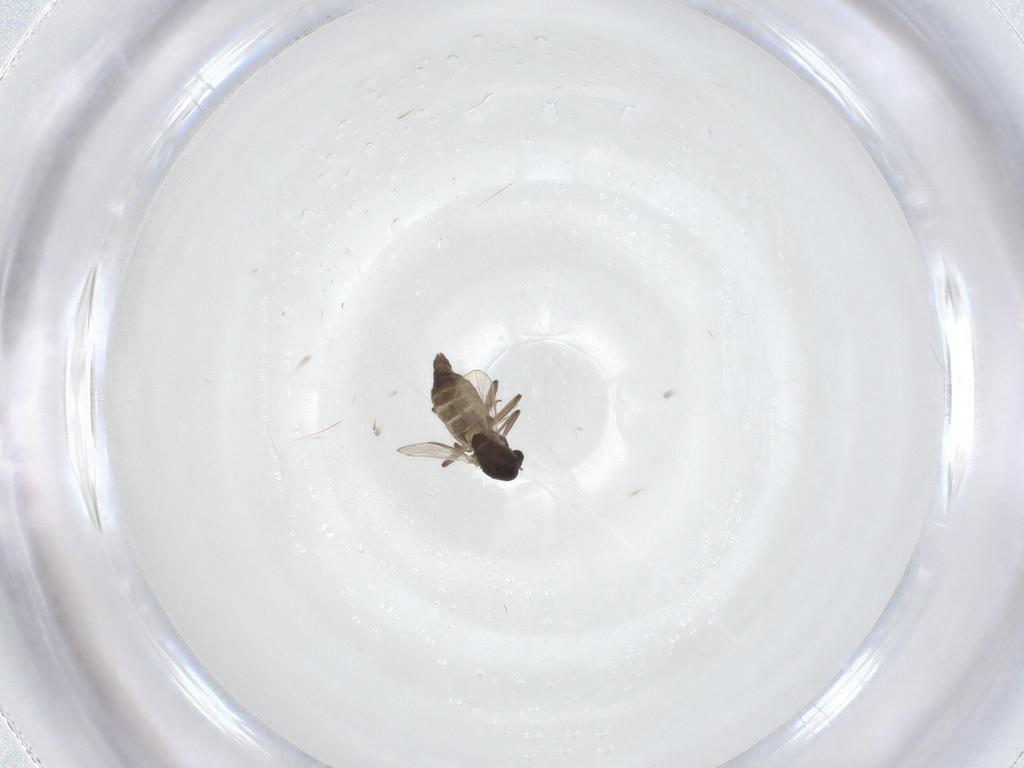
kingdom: Animalia
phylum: Arthropoda
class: Insecta
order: Diptera
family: Chironomidae
